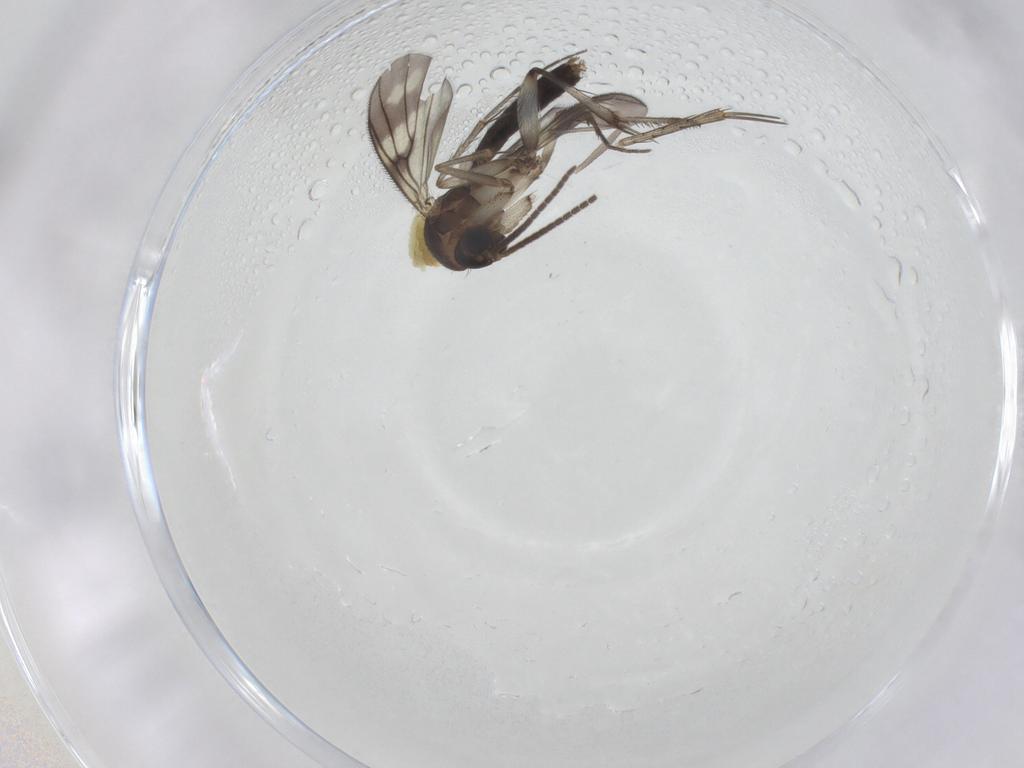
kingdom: Animalia
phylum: Arthropoda
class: Insecta
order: Diptera
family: Mycetophilidae
